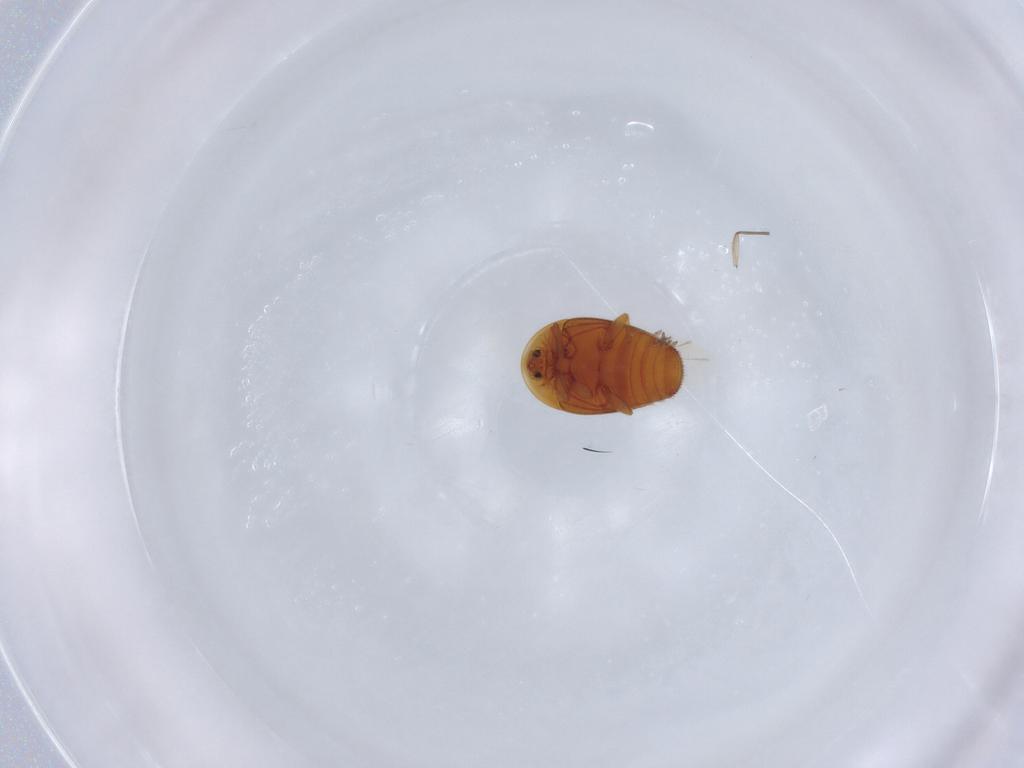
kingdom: Animalia
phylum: Arthropoda
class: Insecta
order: Coleoptera
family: Corylophidae
